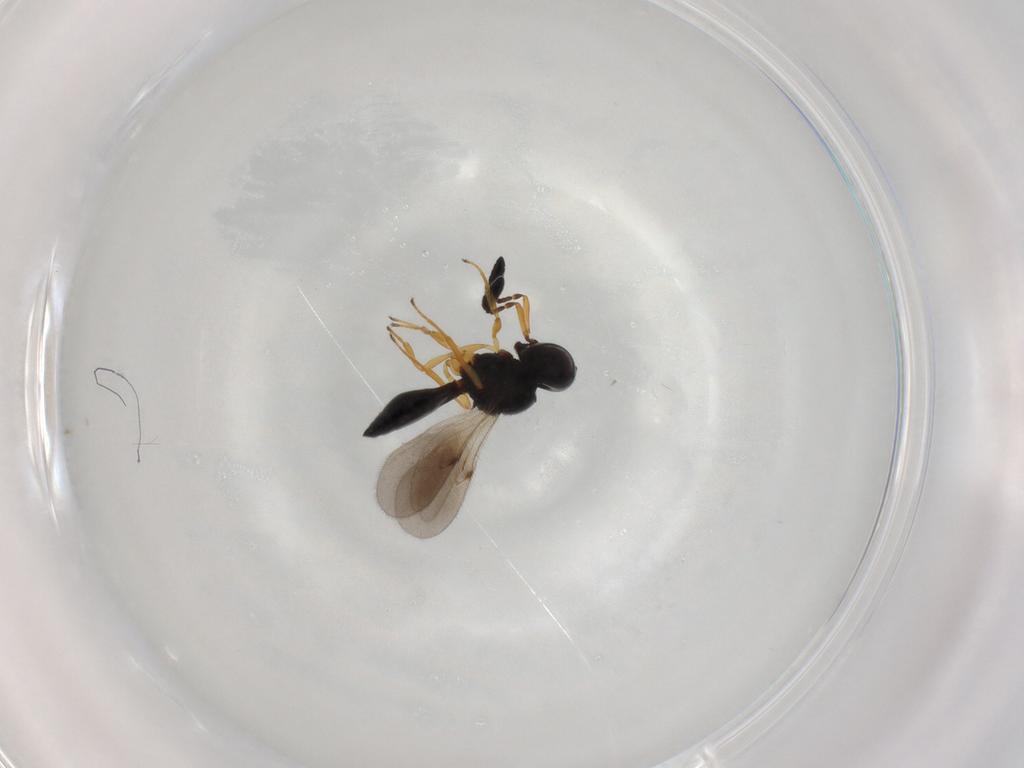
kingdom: Animalia
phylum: Arthropoda
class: Insecta
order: Hymenoptera
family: Scelionidae
